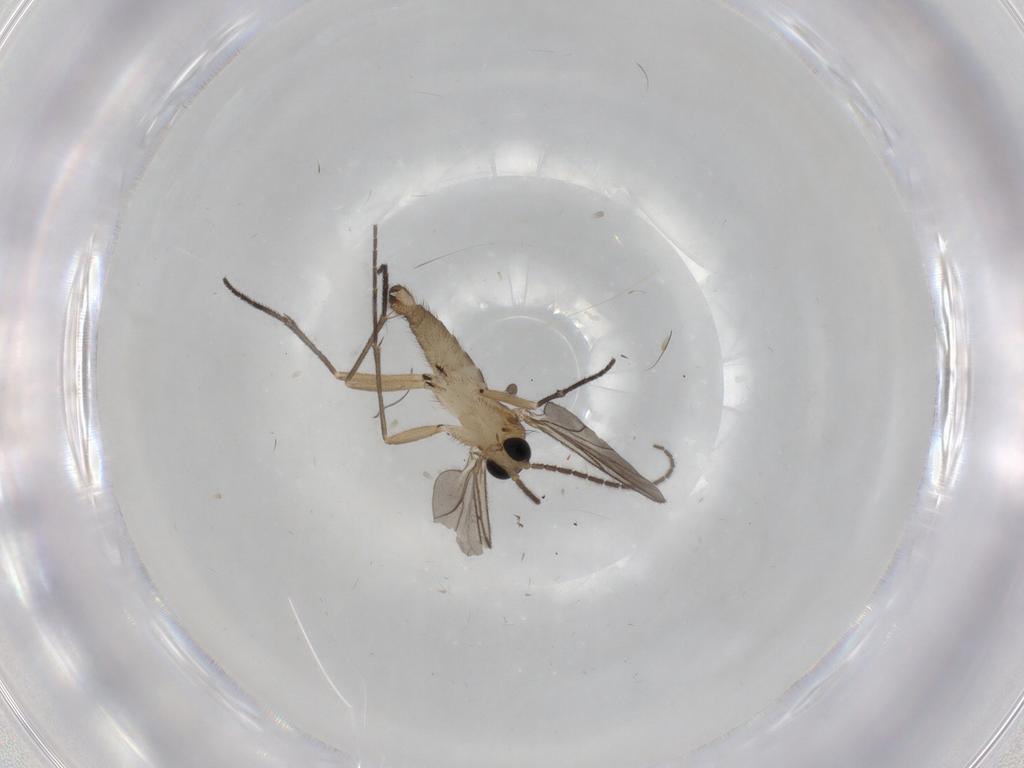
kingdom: Animalia
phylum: Arthropoda
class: Insecta
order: Diptera
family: Sciaridae
